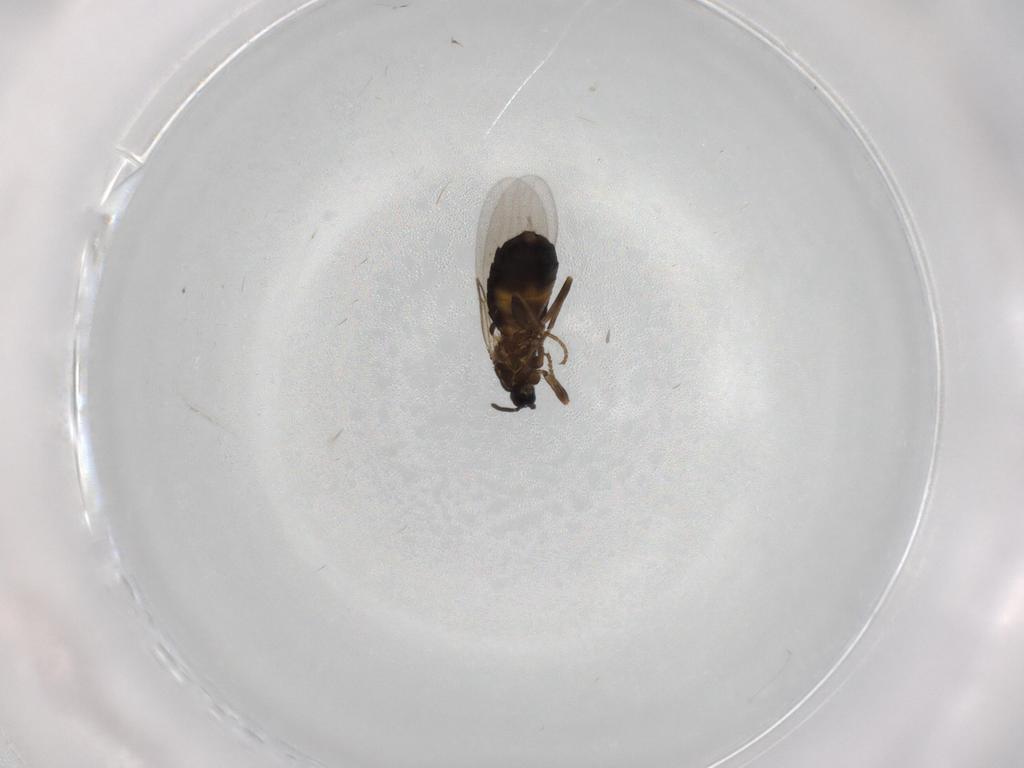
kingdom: Animalia
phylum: Arthropoda
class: Insecta
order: Diptera
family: Scatopsidae
